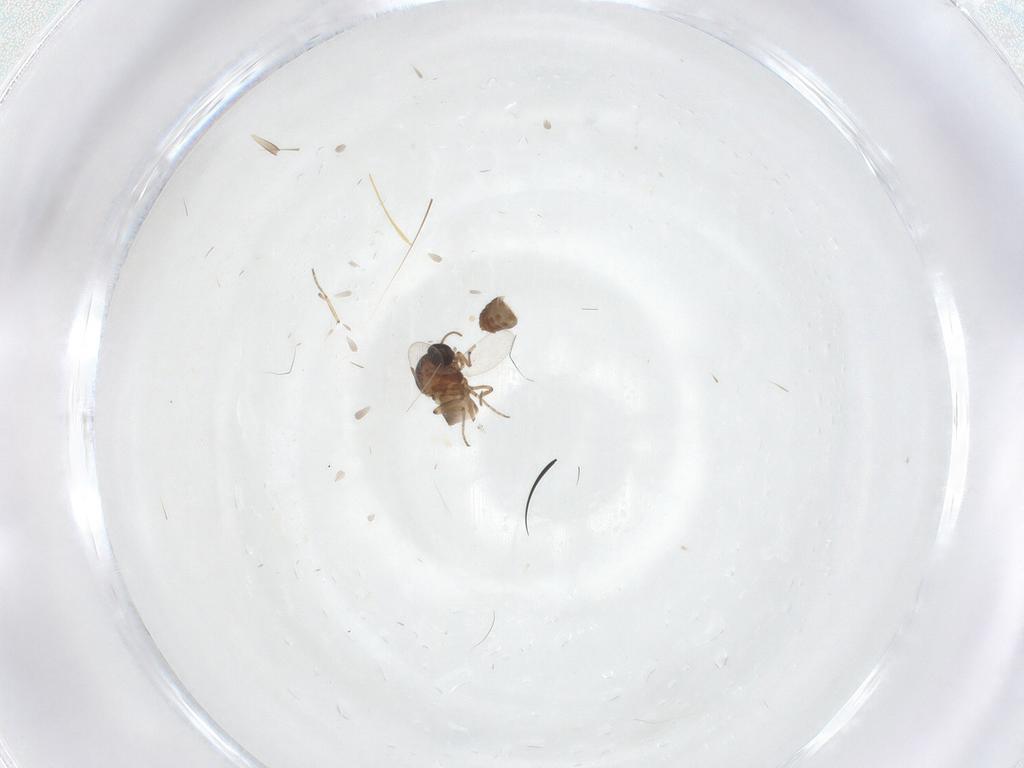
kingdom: Animalia
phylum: Arthropoda
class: Insecta
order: Diptera
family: Ceratopogonidae
